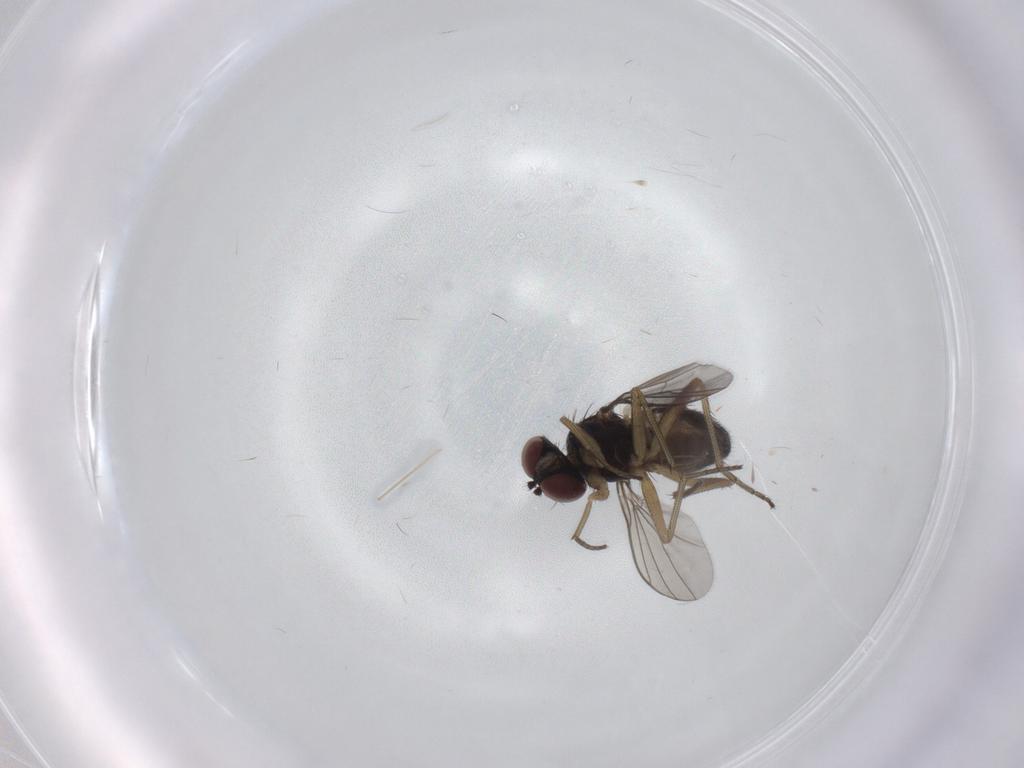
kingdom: Animalia
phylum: Arthropoda
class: Insecta
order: Diptera
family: Dolichopodidae
